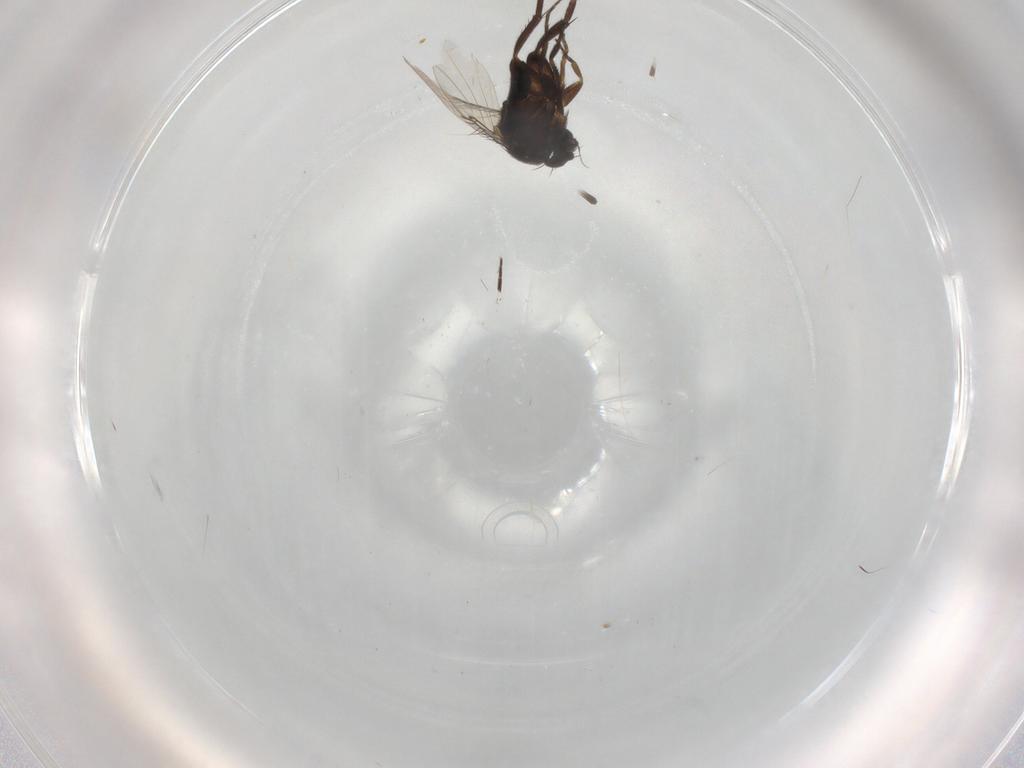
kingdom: Animalia
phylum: Arthropoda
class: Insecta
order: Diptera
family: Phoridae
